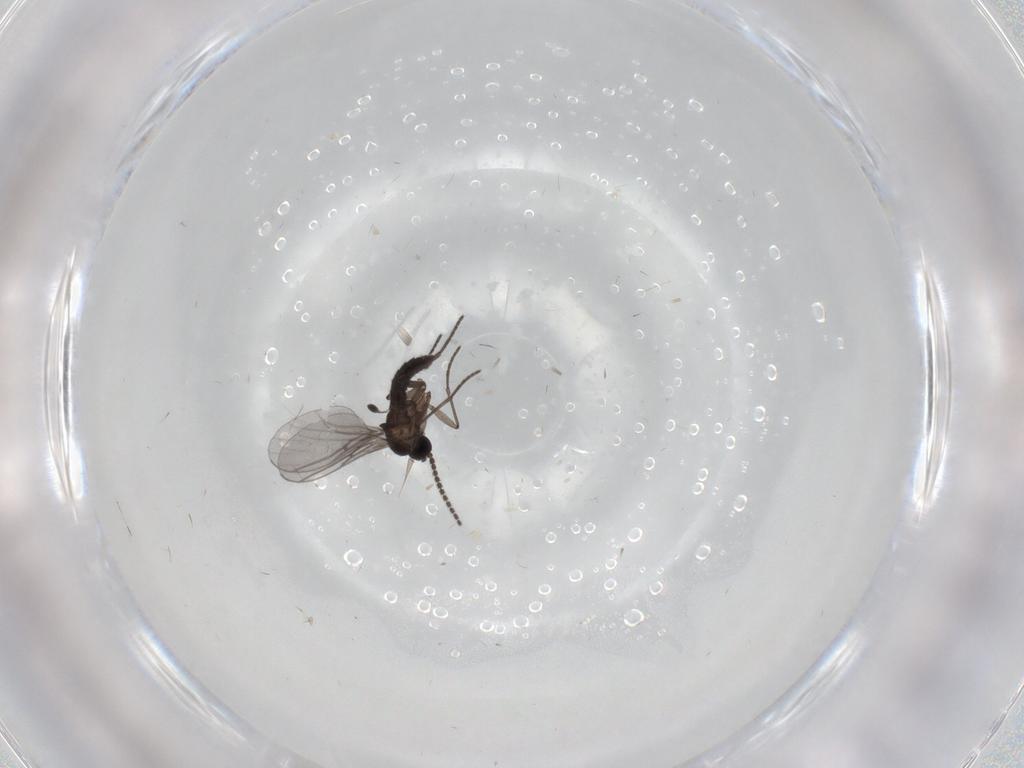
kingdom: Animalia
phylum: Arthropoda
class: Insecta
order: Diptera
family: Sciaridae
